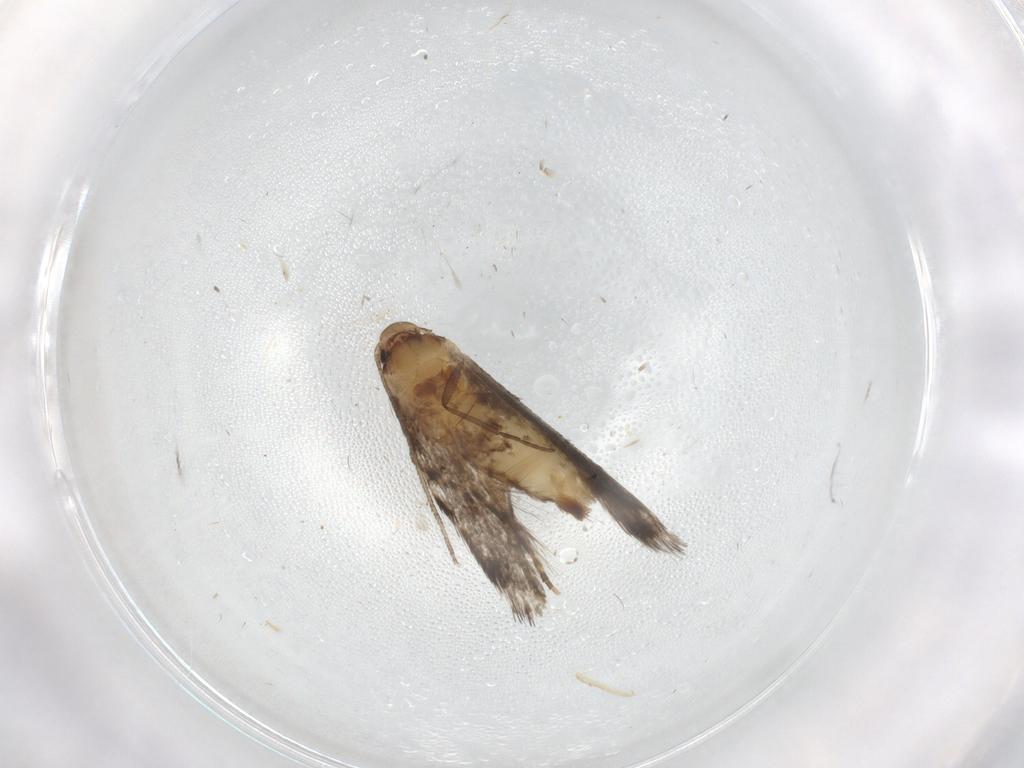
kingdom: Animalia
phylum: Arthropoda
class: Insecta
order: Lepidoptera
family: Elachistidae
